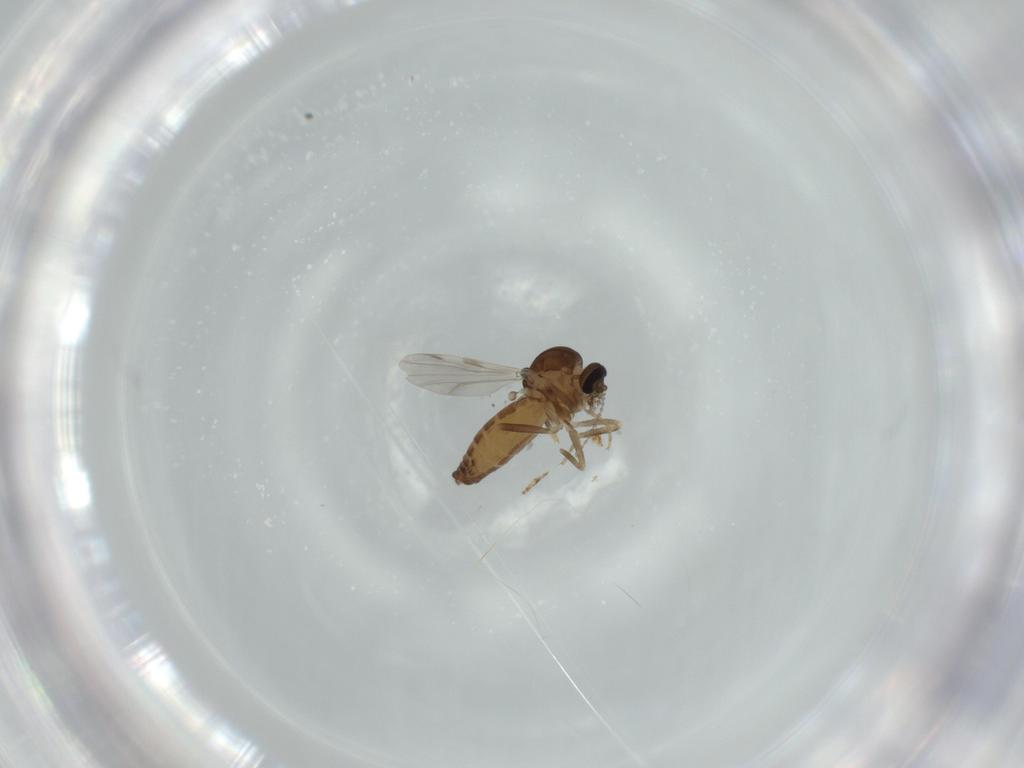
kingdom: Animalia
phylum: Arthropoda
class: Insecta
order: Diptera
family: Ceratopogonidae
